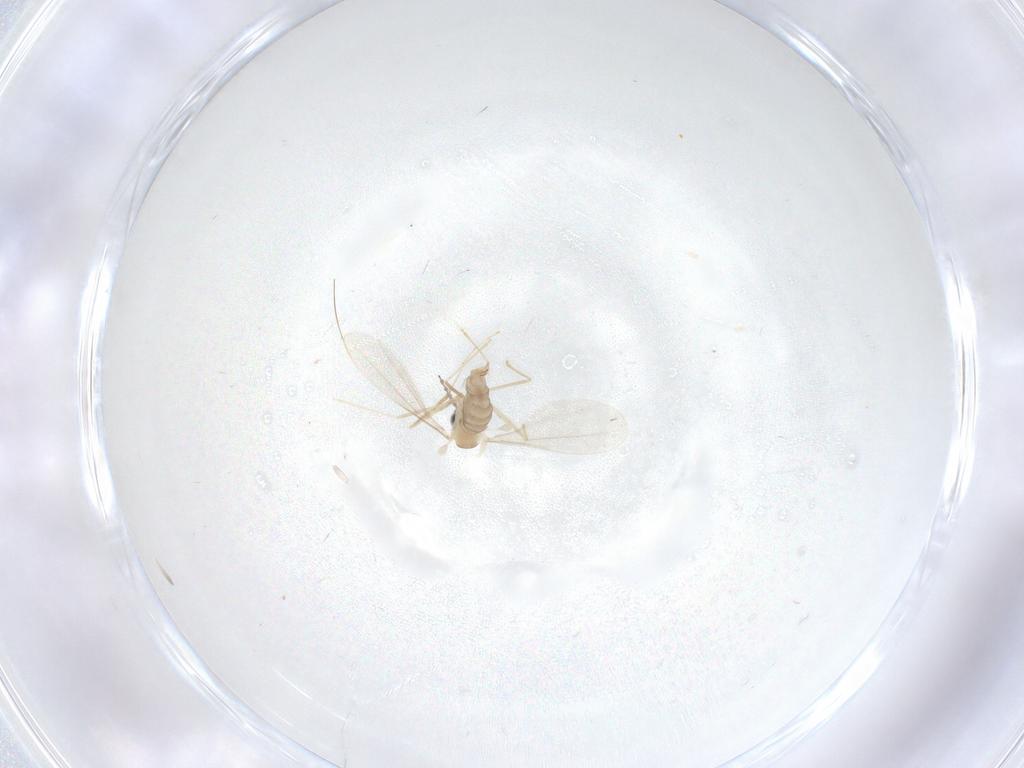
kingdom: Animalia
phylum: Arthropoda
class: Insecta
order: Diptera
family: Cecidomyiidae
